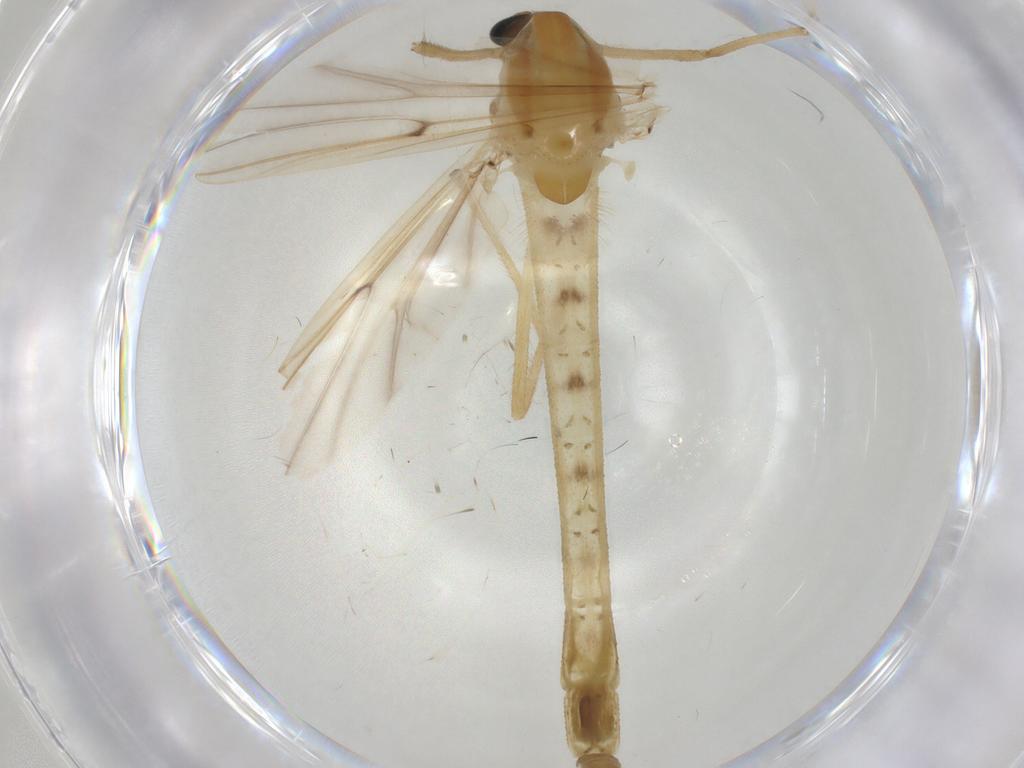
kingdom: Animalia
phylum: Arthropoda
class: Insecta
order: Diptera
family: Chironomidae
